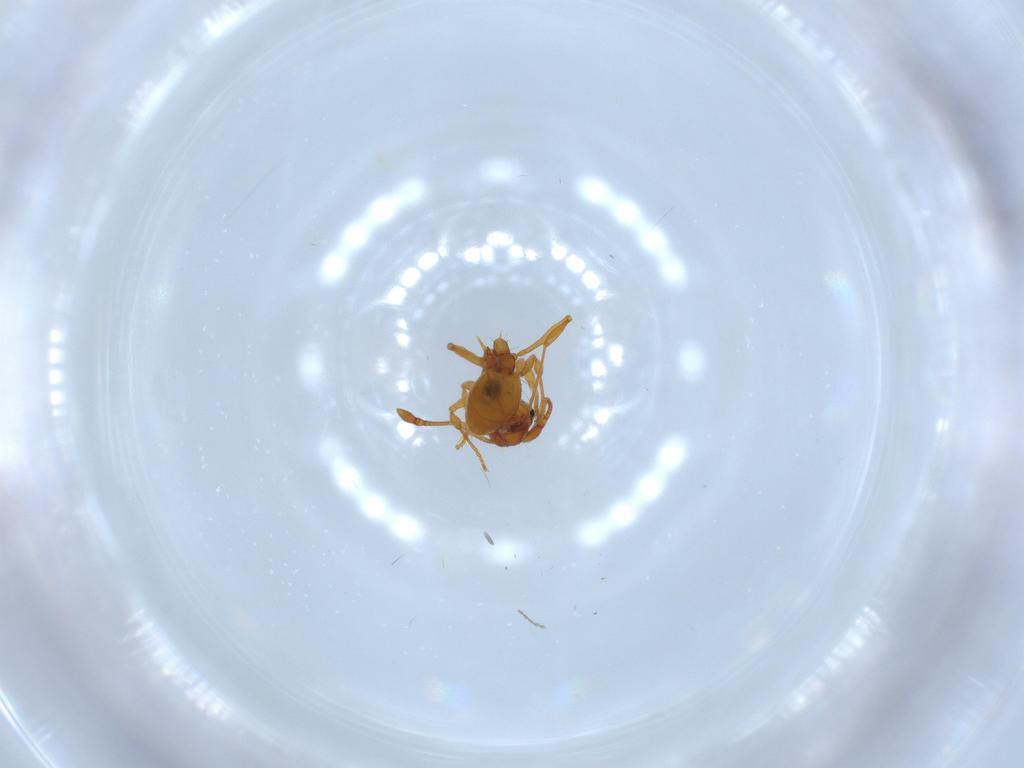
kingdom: Animalia
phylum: Arthropoda
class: Insecta
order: Hymenoptera
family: Formicidae
